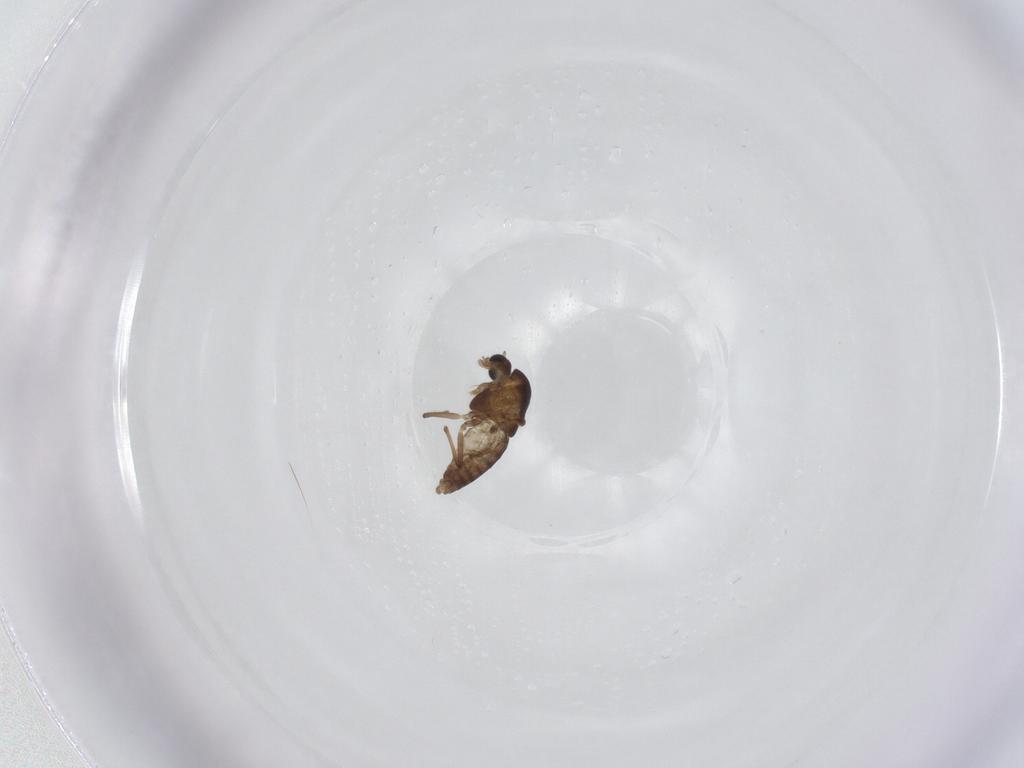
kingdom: Animalia
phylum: Arthropoda
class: Insecta
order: Diptera
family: Chironomidae
